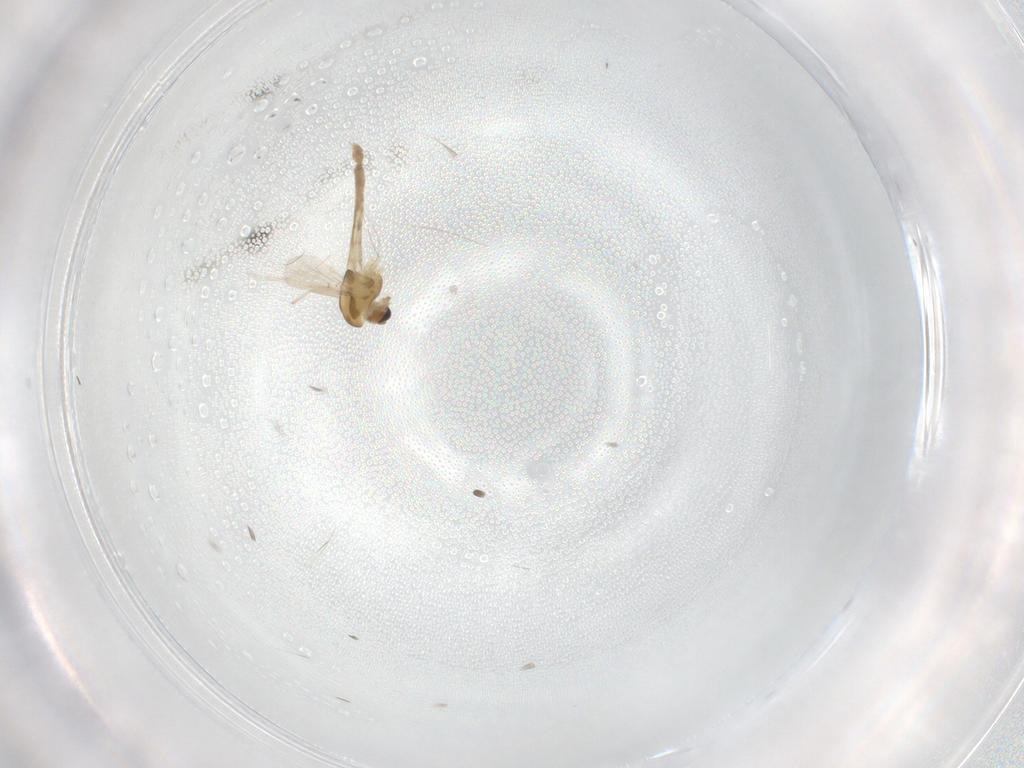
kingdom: Animalia
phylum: Arthropoda
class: Insecta
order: Diptera
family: Chironomidae
